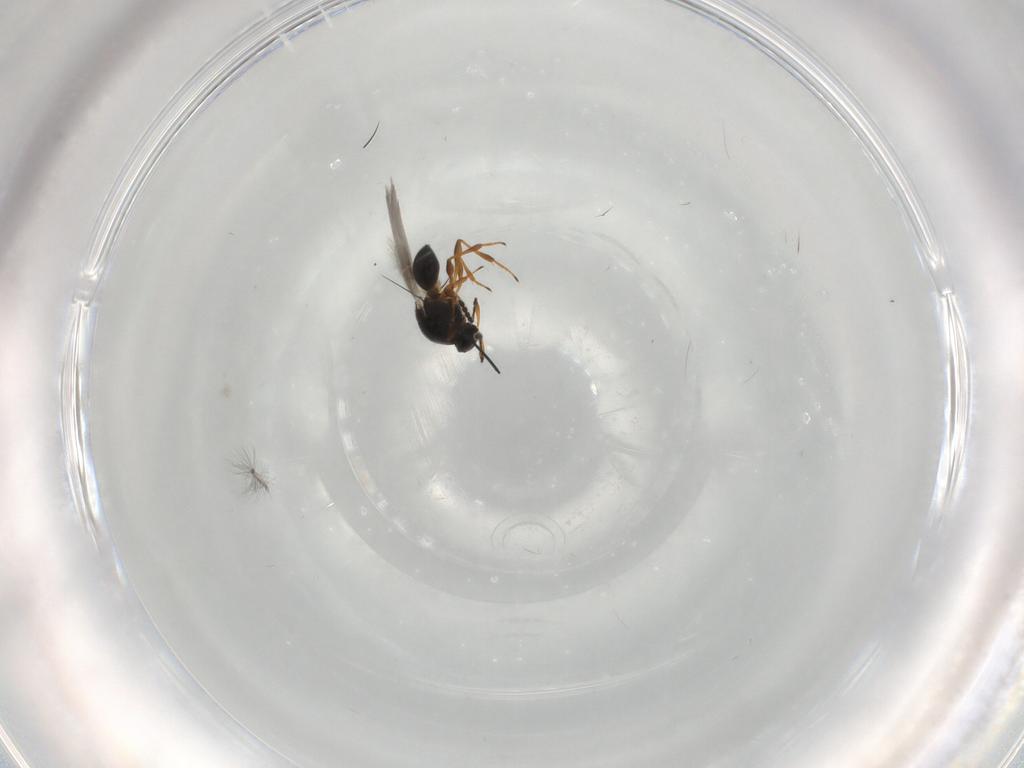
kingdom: Animalia
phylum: Arthropoda
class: Insecta
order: Hymenoptera
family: Platygastridae
